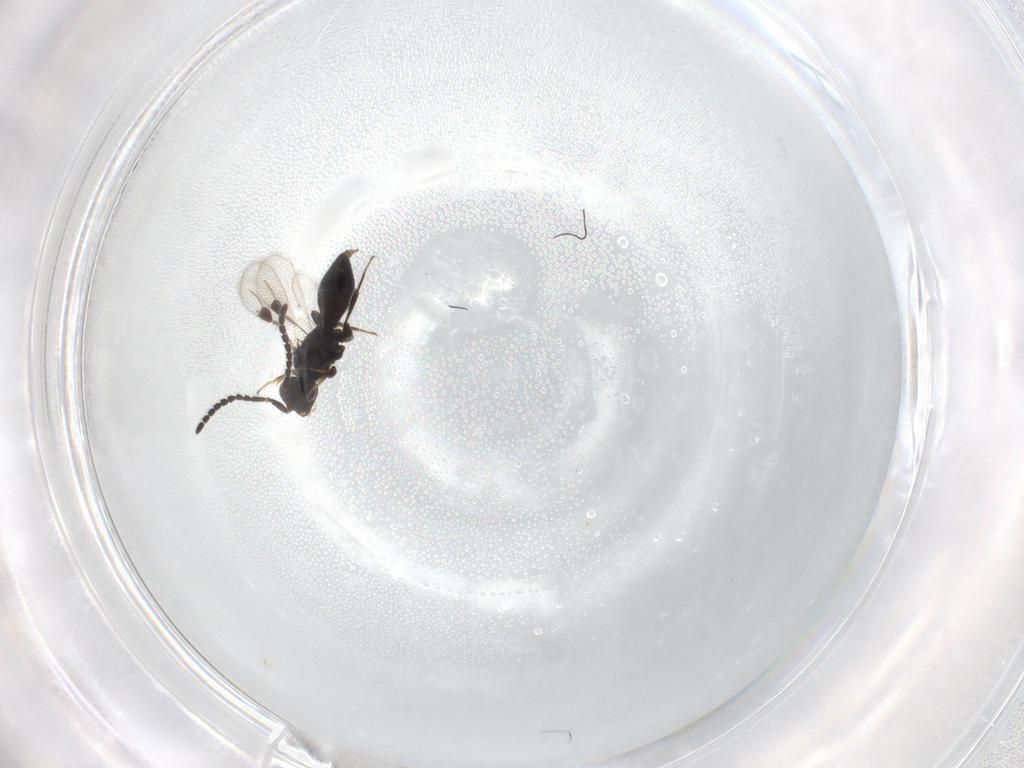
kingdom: Animalia
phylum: Arthropoda
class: Insecta
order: Hymenoptera
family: Megaspilidae
